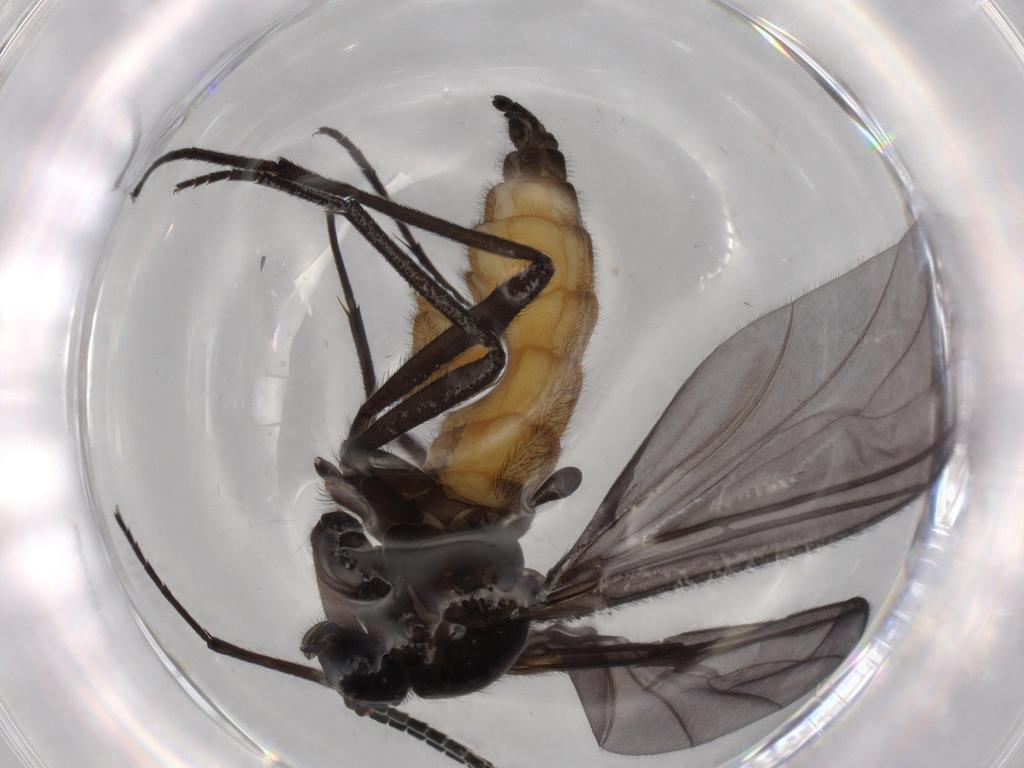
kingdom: Animalia
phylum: Arthropoda
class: Insecta
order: Diptera
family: Sciaridae
